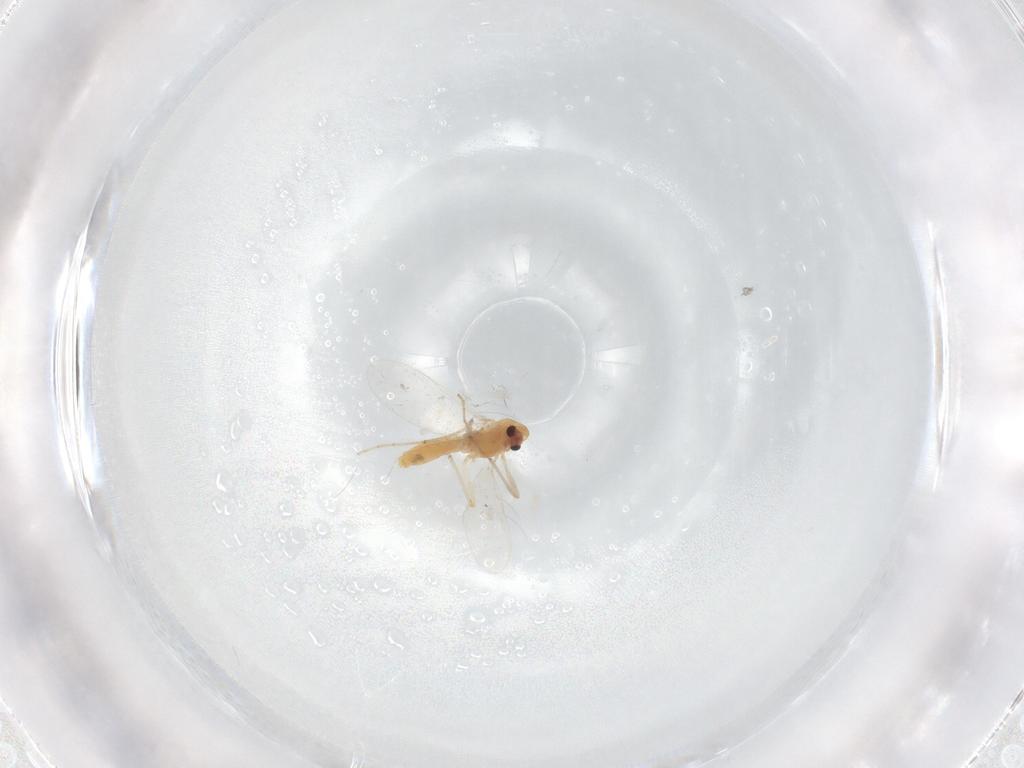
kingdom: Animalia
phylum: Arthropoda
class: Insecta
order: Diptera
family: Chironomidae
